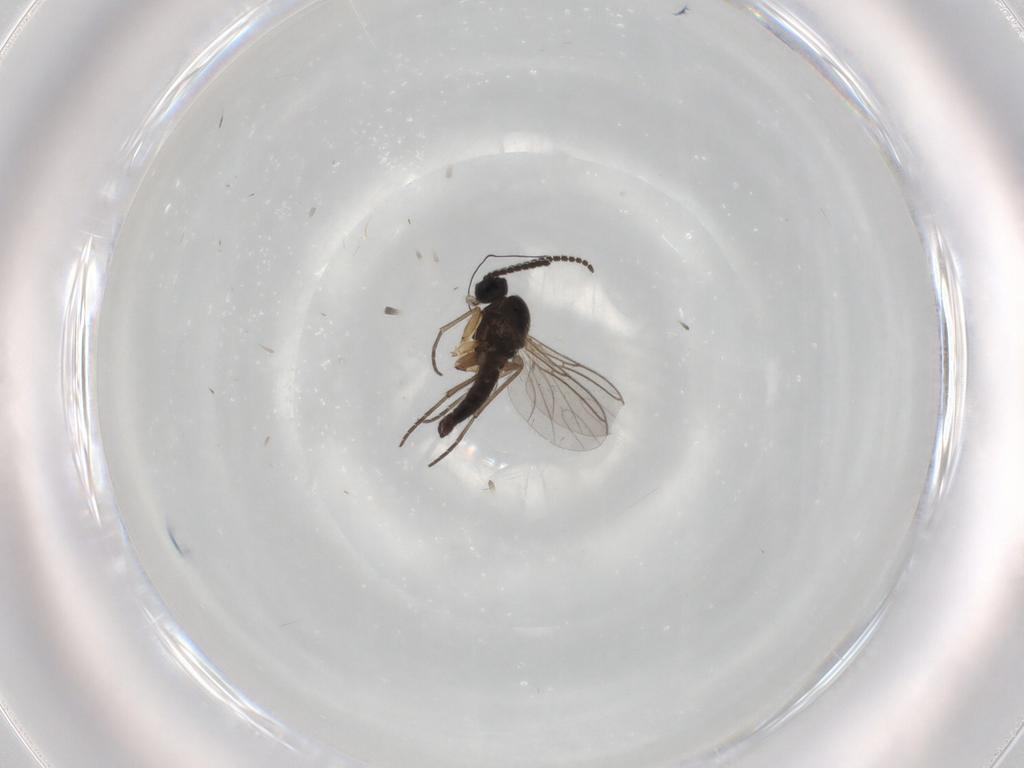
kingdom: Animalia
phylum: Arthropoda
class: Insecta
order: Diptera
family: Sciaridae
